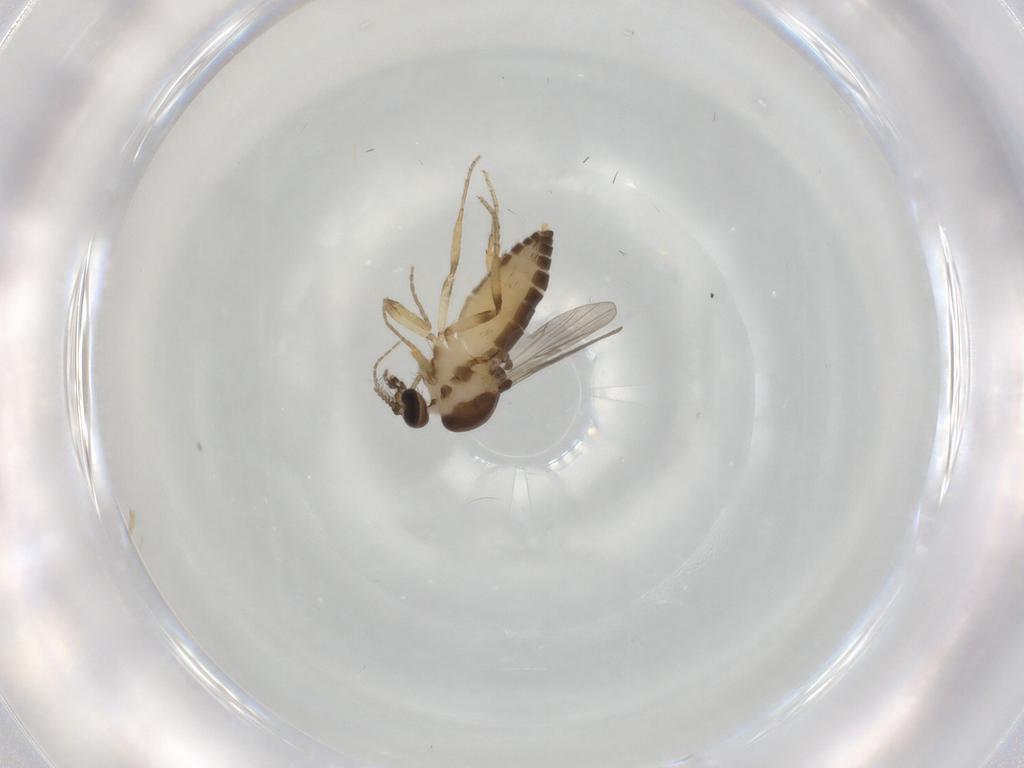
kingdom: Animalia
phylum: Arthropoda
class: Insecta
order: Diptera
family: Ceratopogonidae
